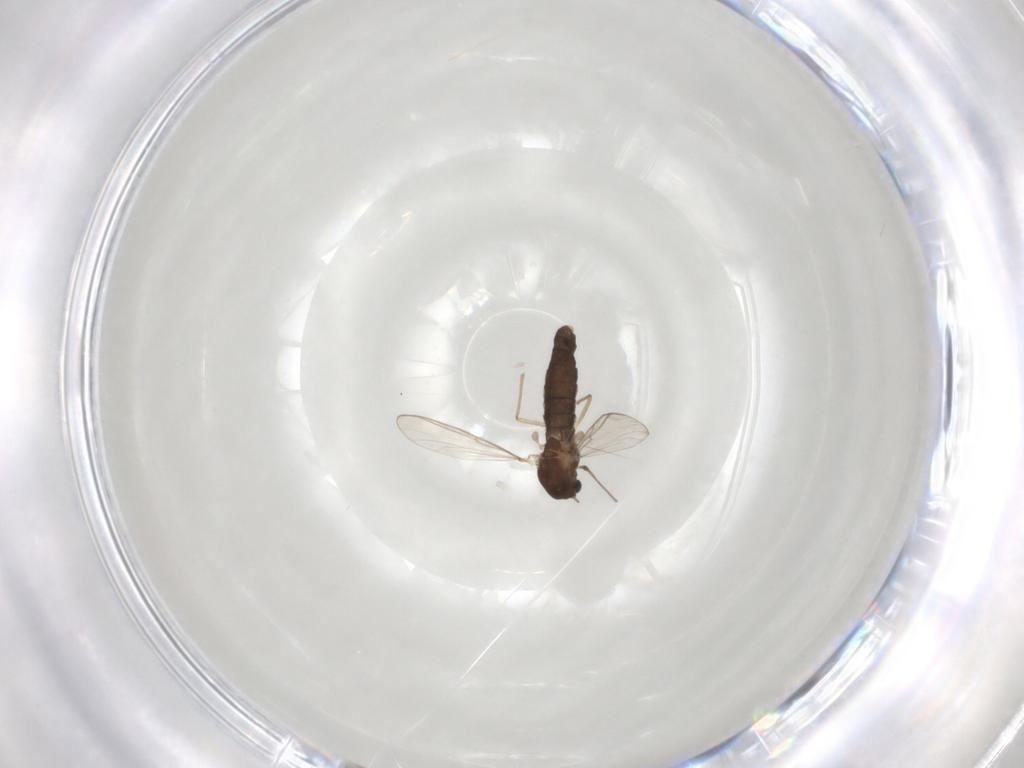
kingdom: Animalia
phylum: Arthropoda
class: Insecta
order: Diptera
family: Chironomidae
